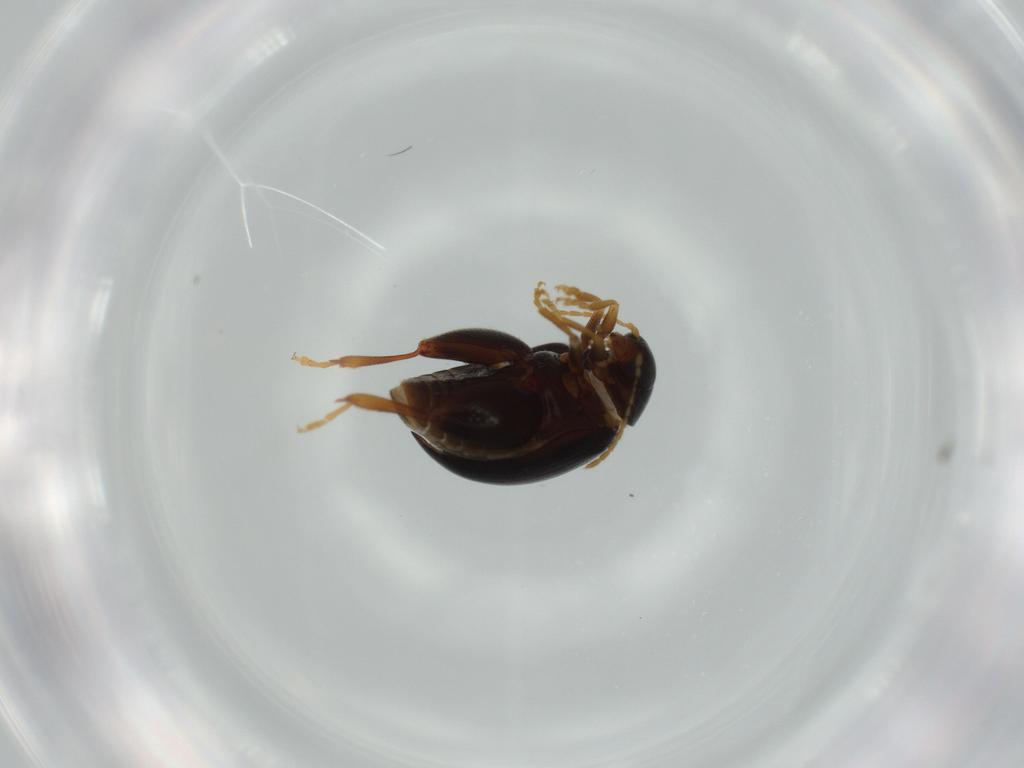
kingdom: Animalia
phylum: Arthropoda
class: Insecta
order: Coleoptera
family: Chrysomelidae
